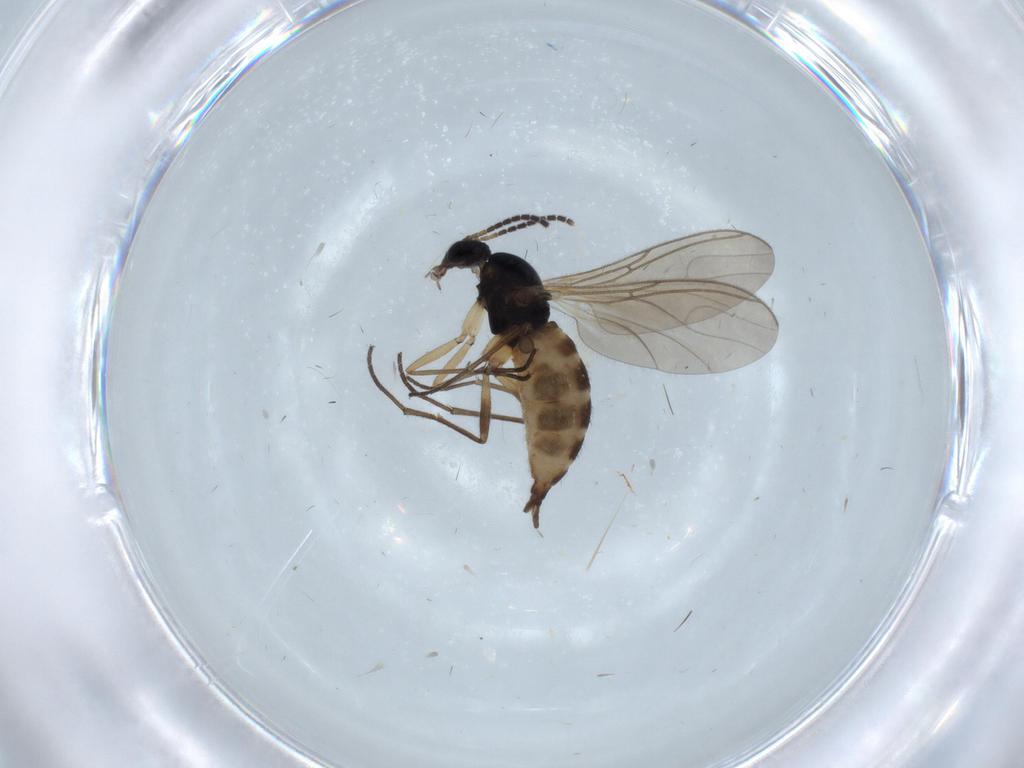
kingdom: Animalia
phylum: Arthropoda
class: Insecta
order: Diptera
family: Sciaridae
